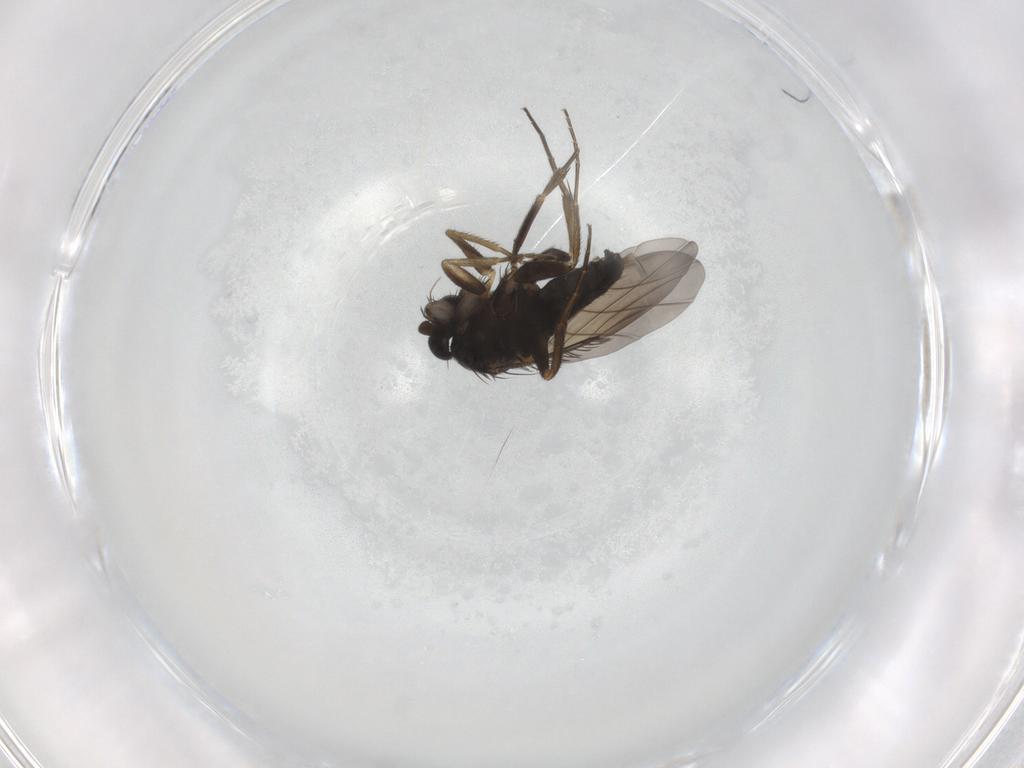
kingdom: Animalia
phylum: Arthropoda
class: Insecta
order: Diptera
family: Phoridae
